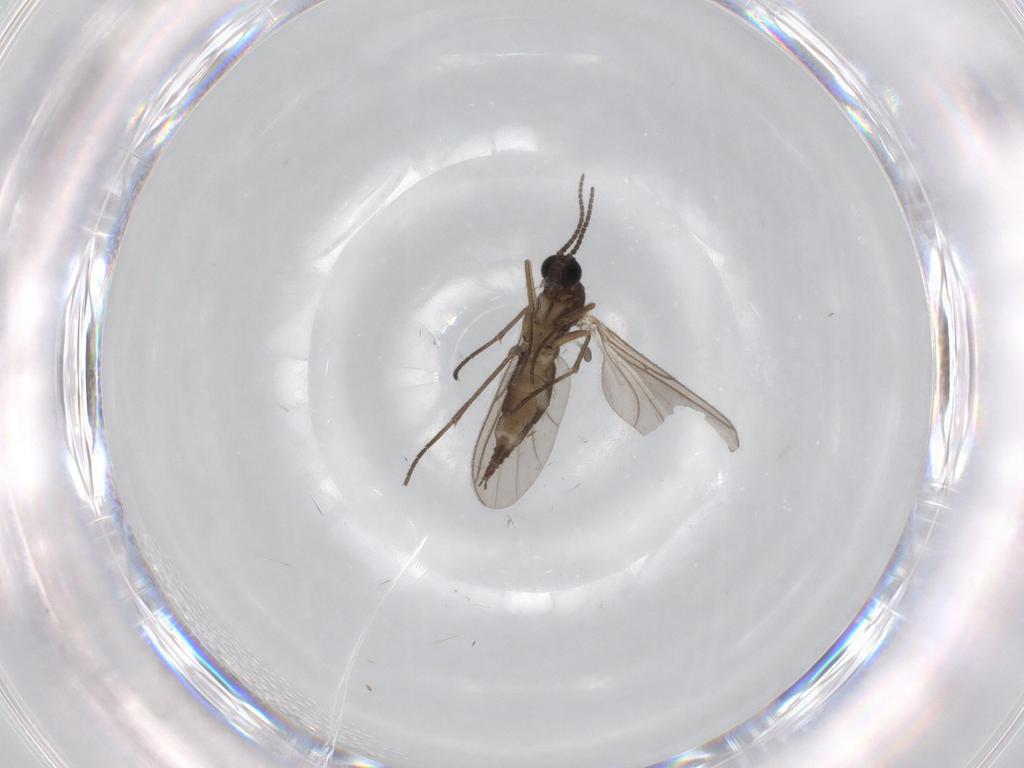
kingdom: Animalia
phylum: Arthropoda
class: Insecta
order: Diptera
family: Sciaridae
